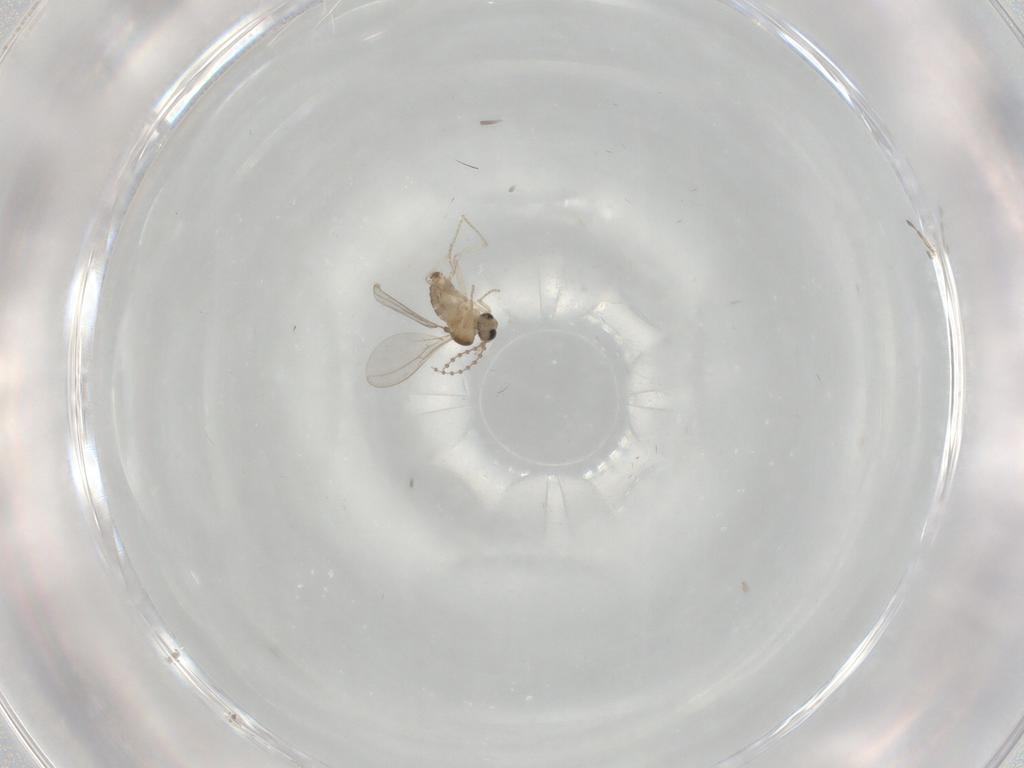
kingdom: Animalia
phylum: Arthropoda
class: Insecta
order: Diptera
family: Cecidomyiidae
